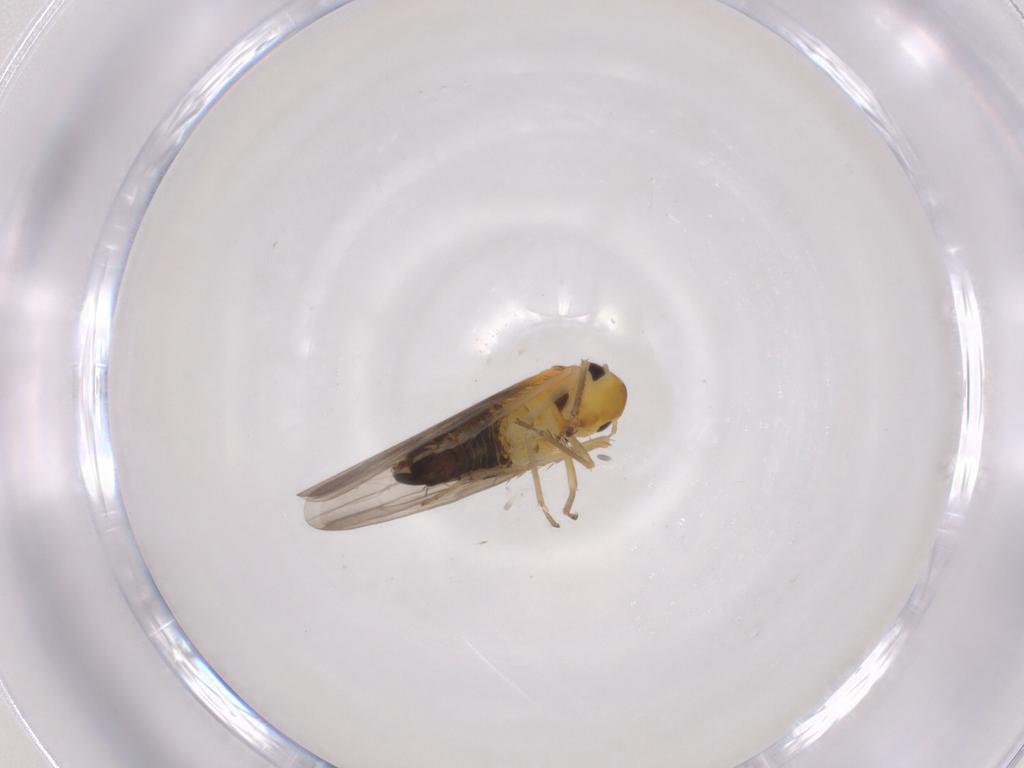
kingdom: Animalia
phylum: Arthropoda
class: Insecta
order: Hemiptera
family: Cicadellidae
